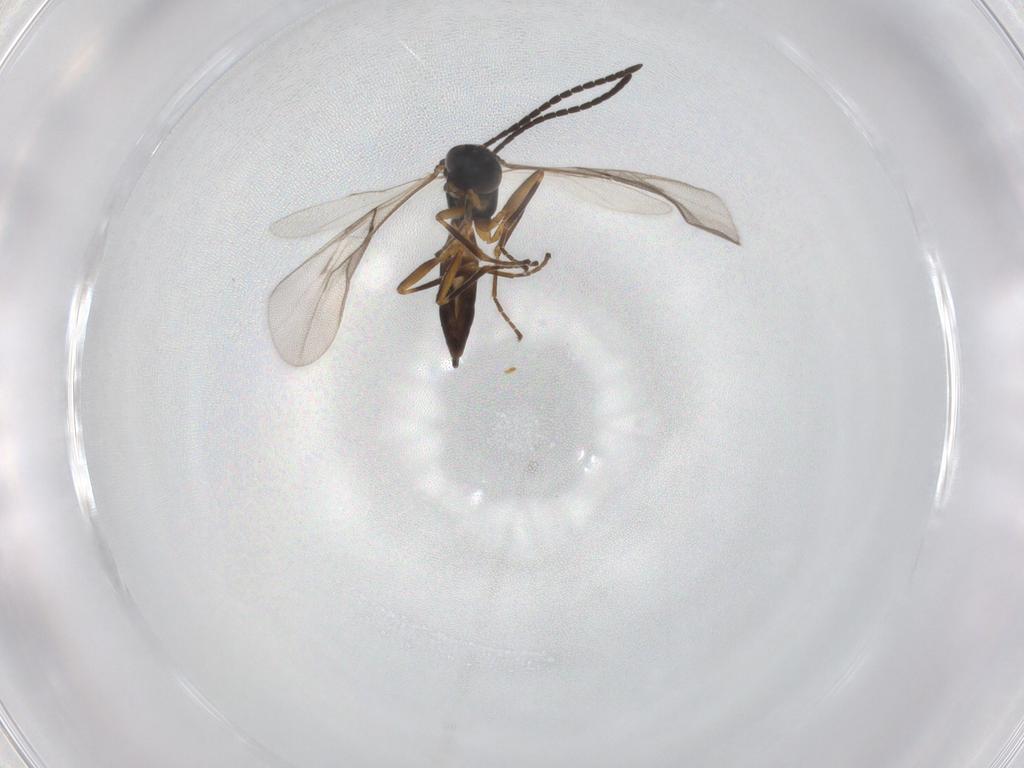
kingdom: Animalia
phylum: Arthropoda
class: Insecta
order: Hymenoptera
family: Braconidae
